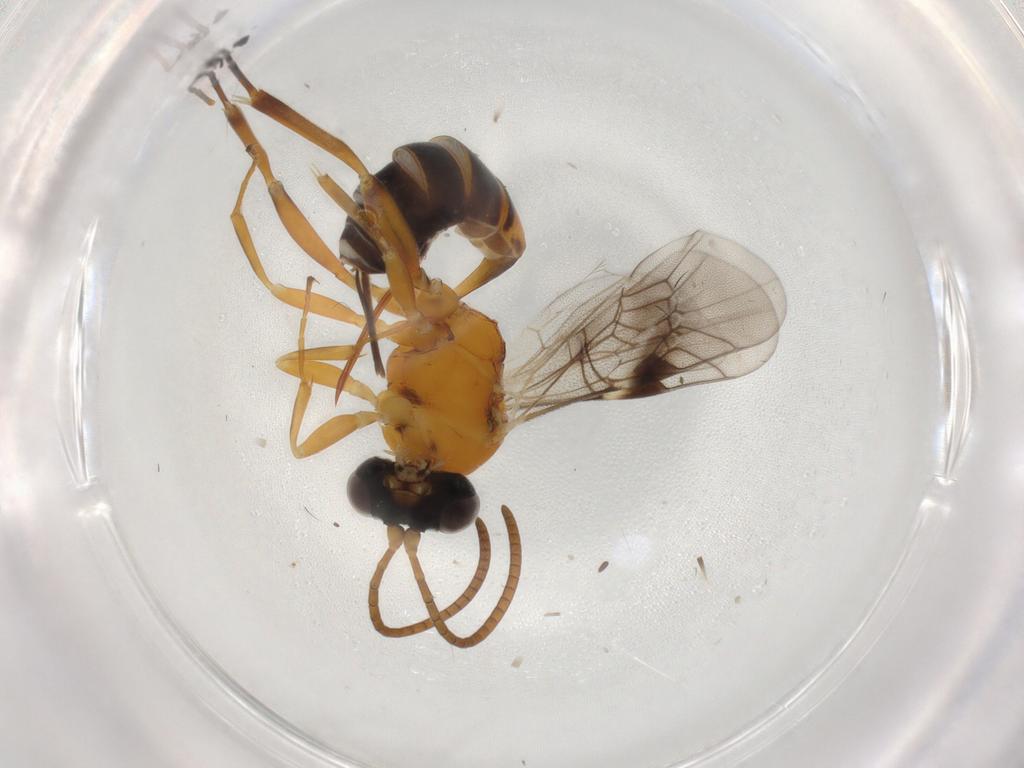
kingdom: Animalia
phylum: Arthropoda
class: Insecta
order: Hymenoptera
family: Ichneumonidae
